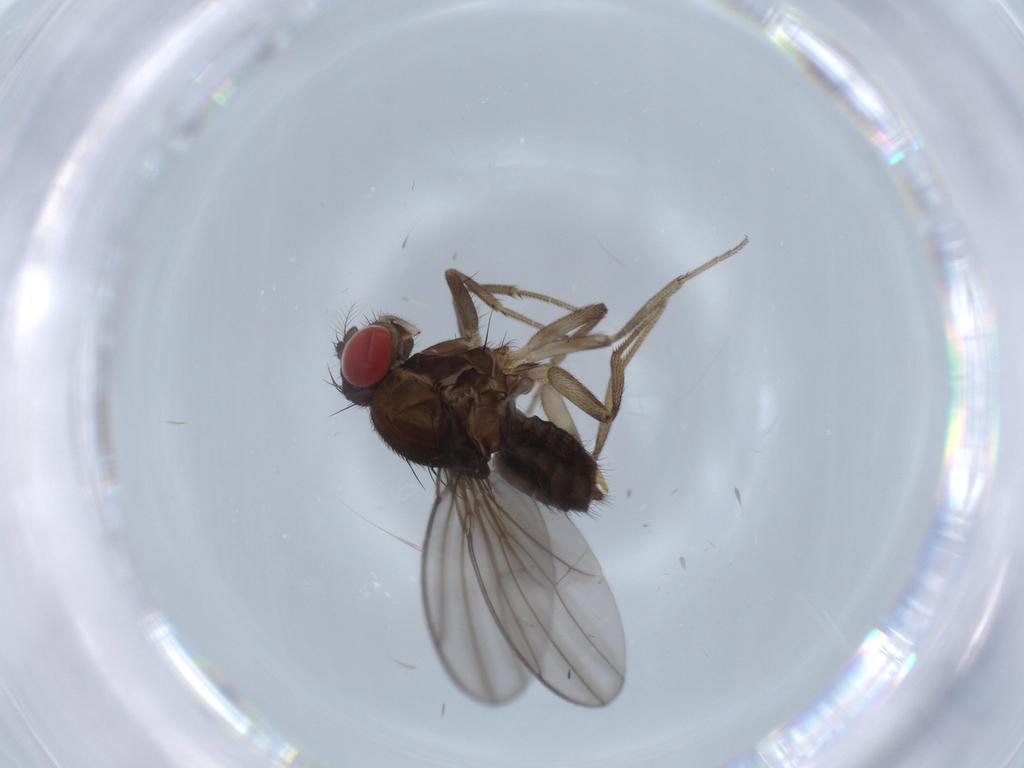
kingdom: Animalia
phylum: Arthropoda
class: Insecta
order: Diptera
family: Drosophilidae
